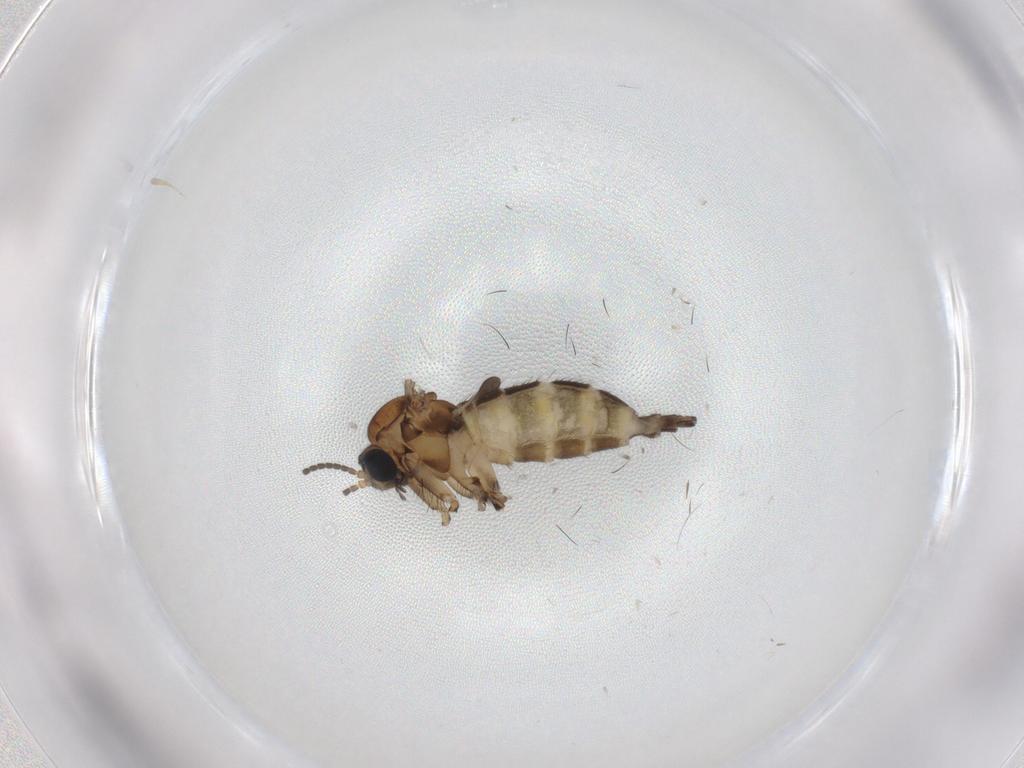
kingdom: Animalia
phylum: Arthropoda
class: Insecta
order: Diptera
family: Sciaridae
